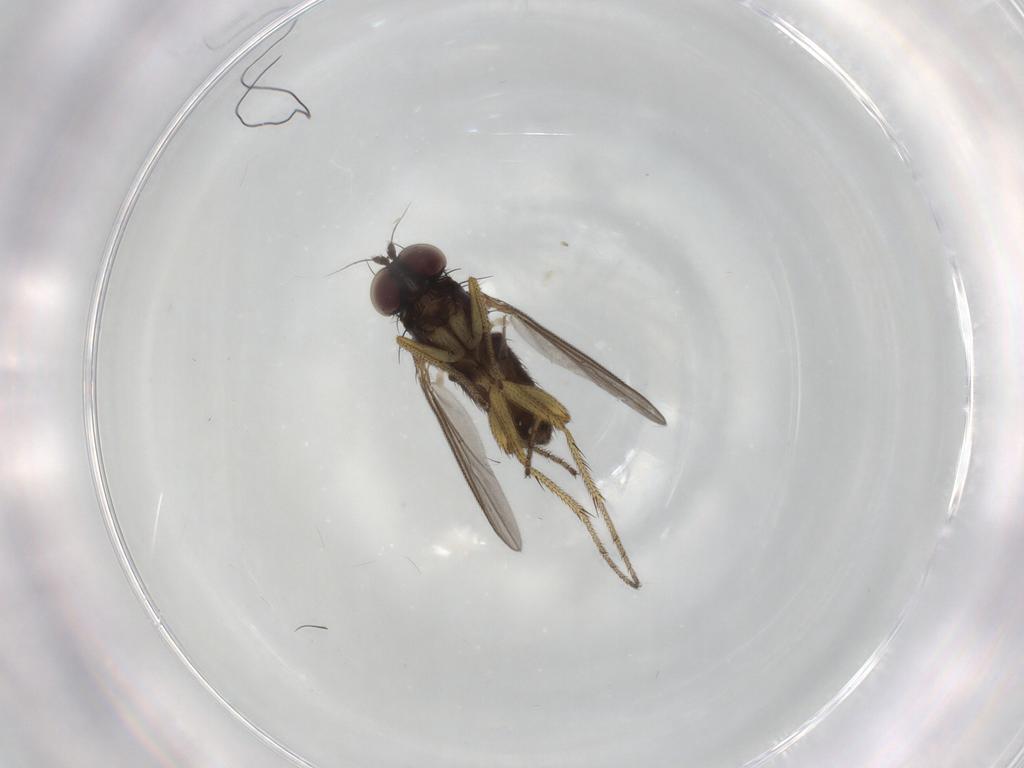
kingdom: Animalia
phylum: Arthropoda
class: Insecta
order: Diptera
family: Dolichopodidae
